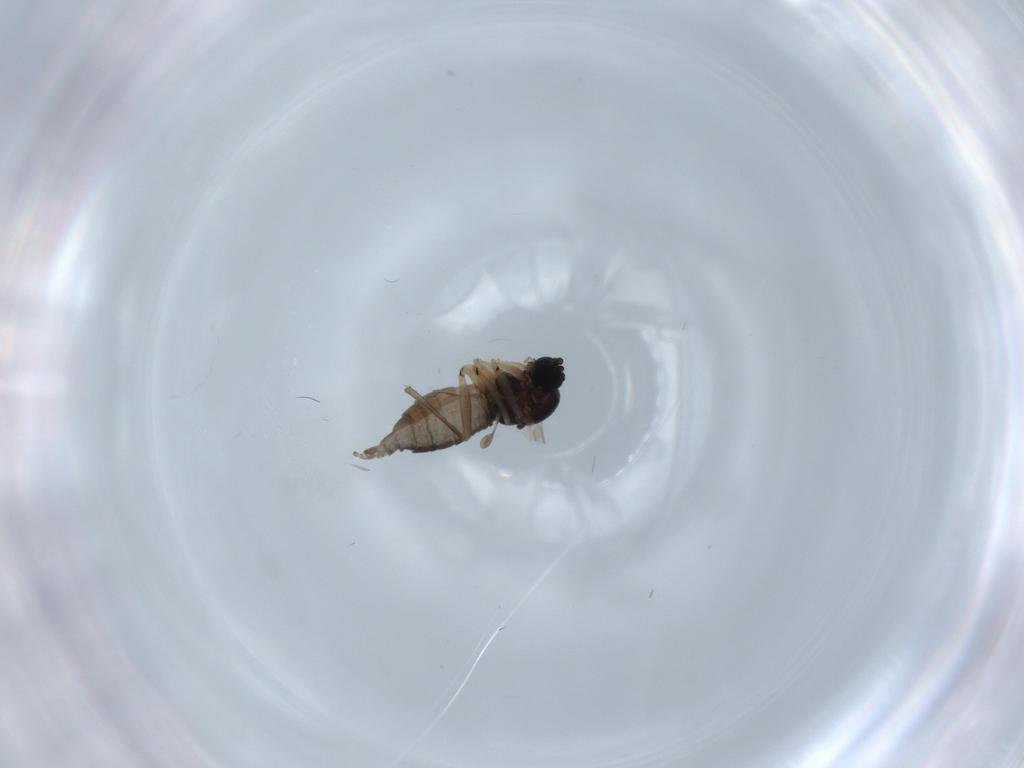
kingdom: Animalia
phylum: Arthropoda
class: Insecta
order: Diptera
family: Sciaridae
